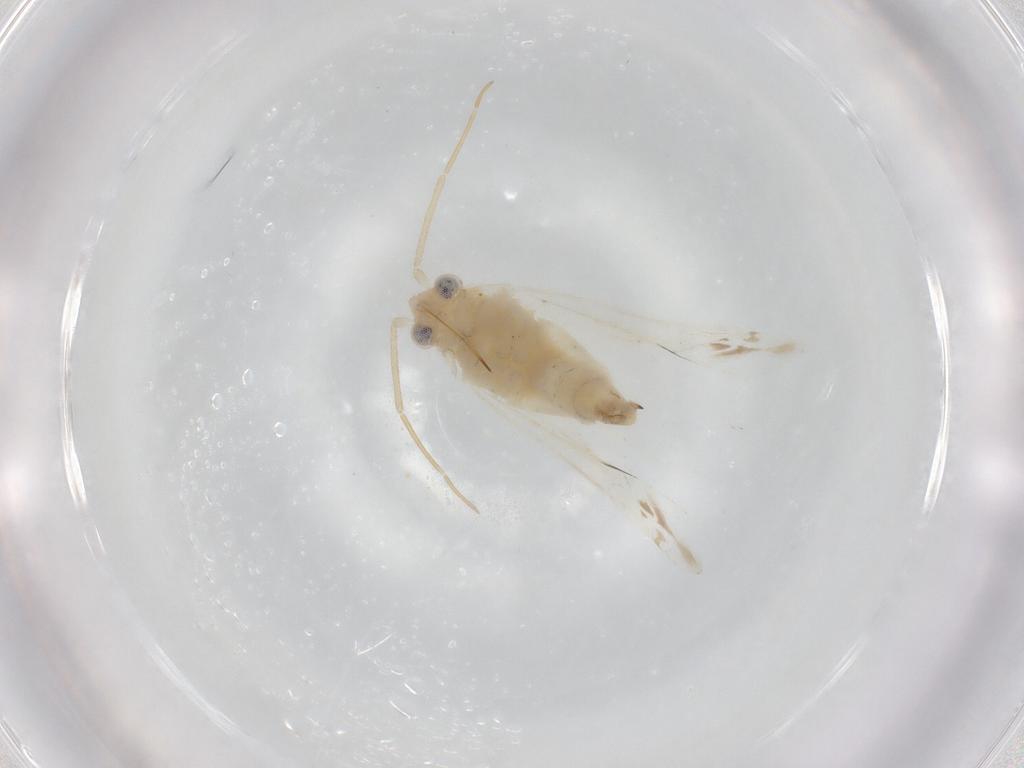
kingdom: Animalia
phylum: Arthropoda
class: Insecta
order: Hemiptera
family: Miridae
